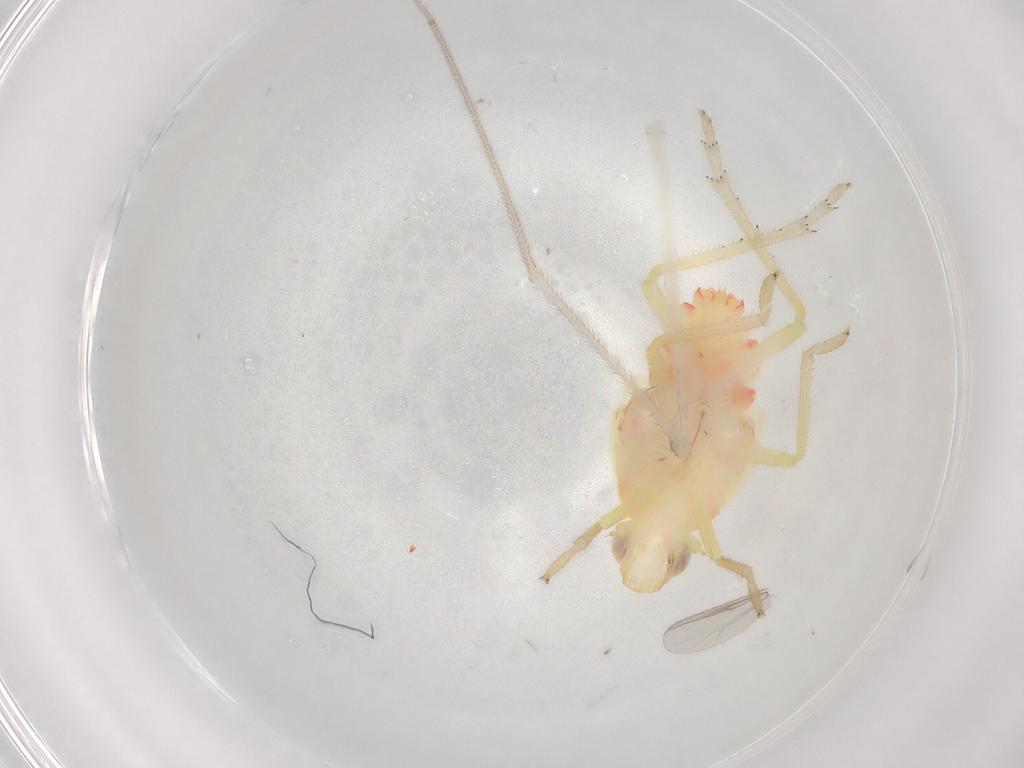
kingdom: Animalia
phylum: Arthropoda
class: Insecta
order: Hemiptera
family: Tropiduchidae
